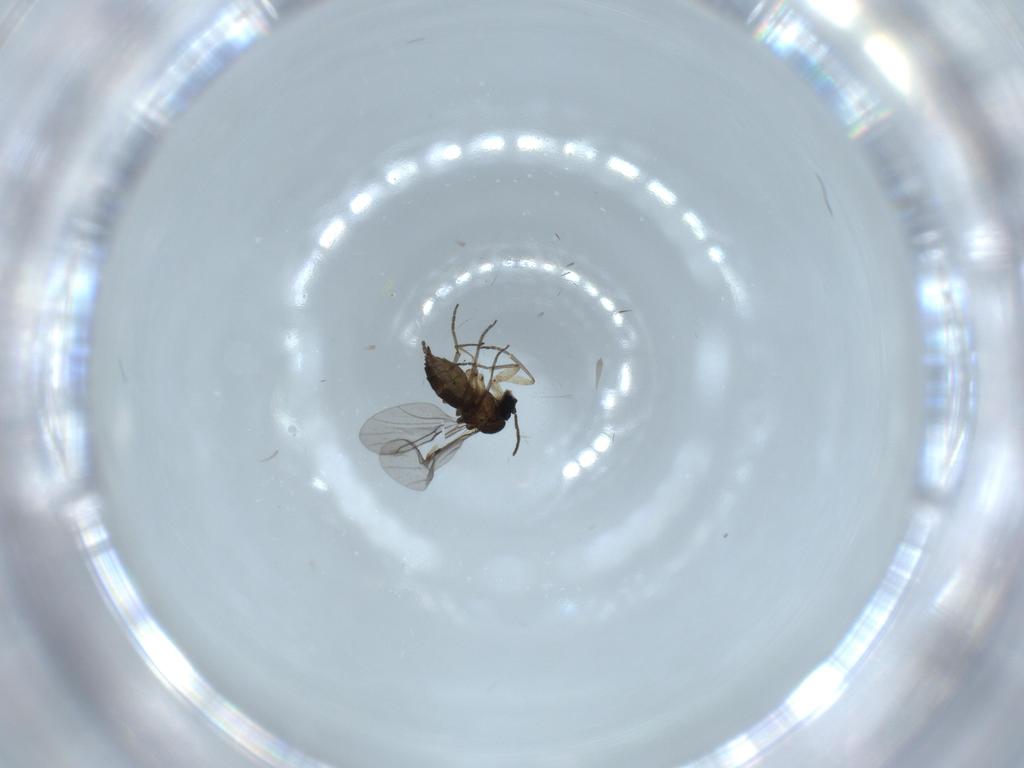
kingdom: Animalia
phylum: Arthropoda
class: Insecta
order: Diptera
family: Sciaridae
